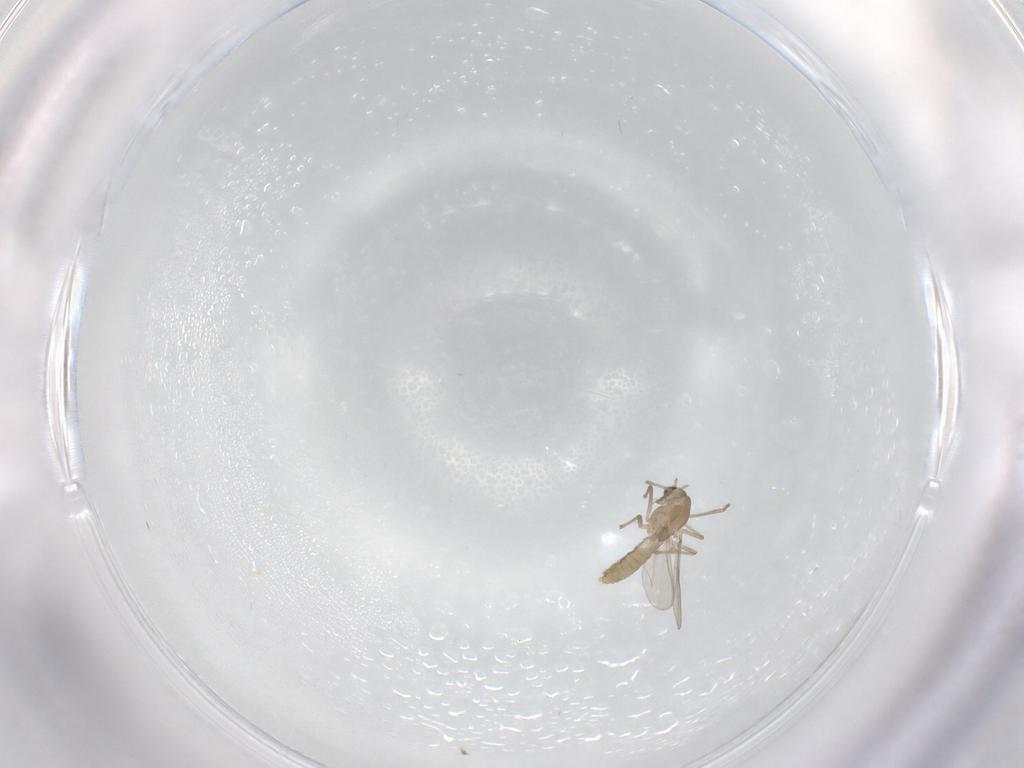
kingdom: Animalia
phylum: Arthropoda
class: Insecta
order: Diptera
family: Chironomidae
